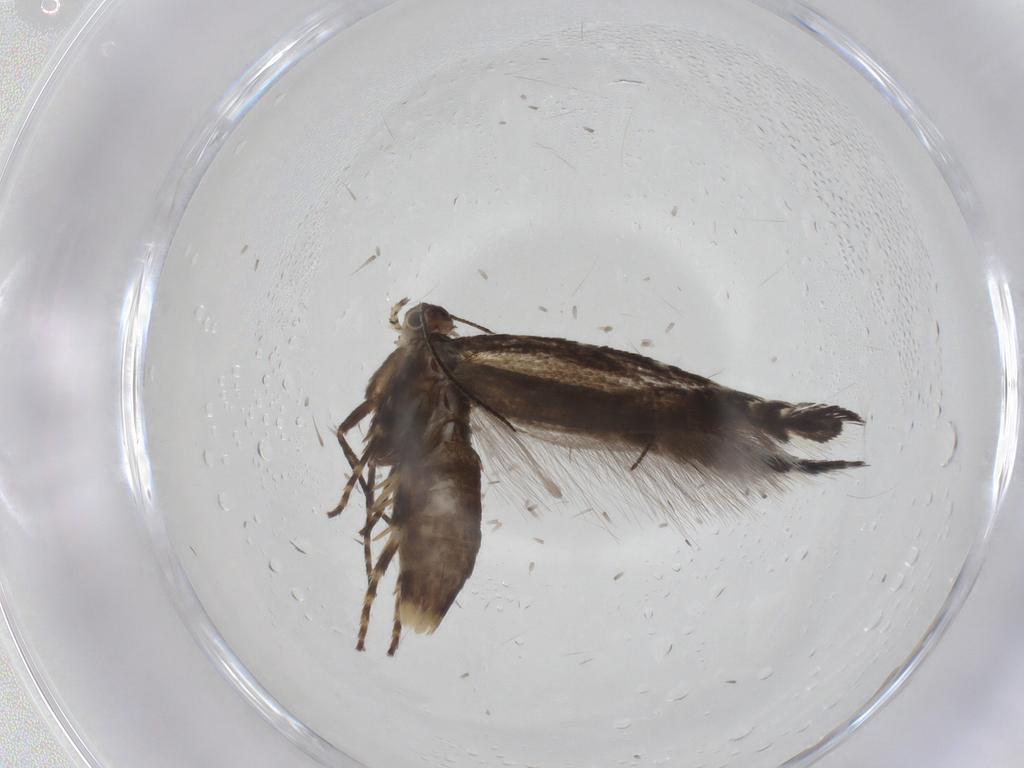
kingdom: Animalia
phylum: Arthropoda
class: Insecta
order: Lepidoptera
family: Glyphipterigidae
